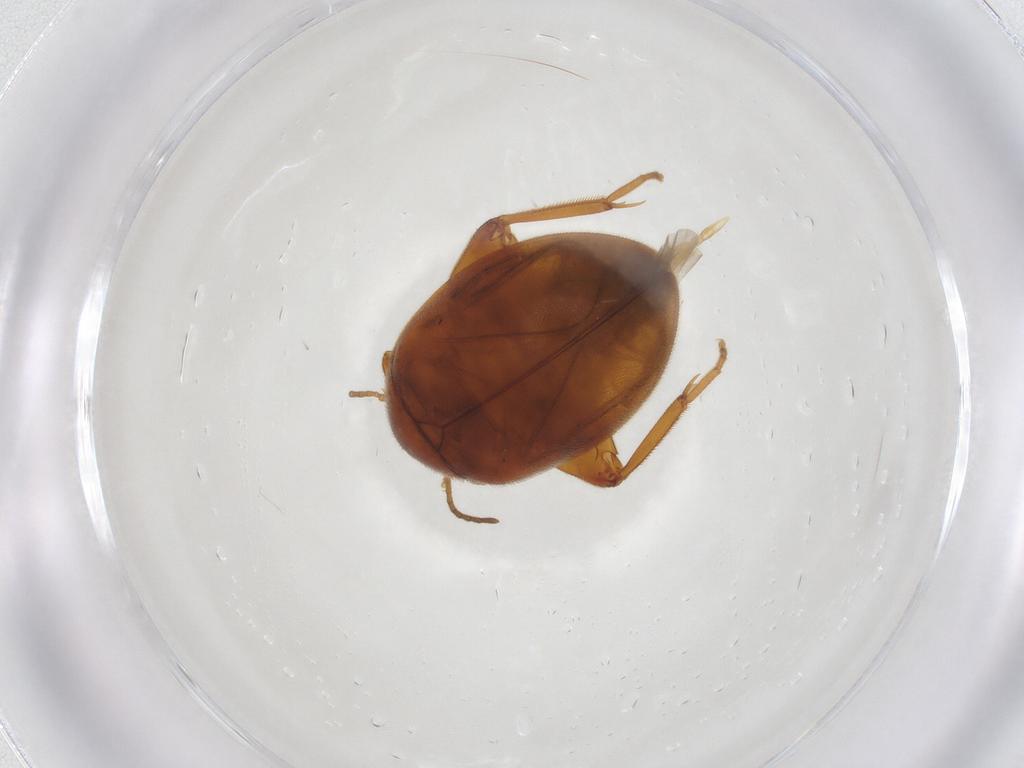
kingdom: Animalia
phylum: Arthropoda
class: Insecta
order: Coleoptera
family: Scirtidae
